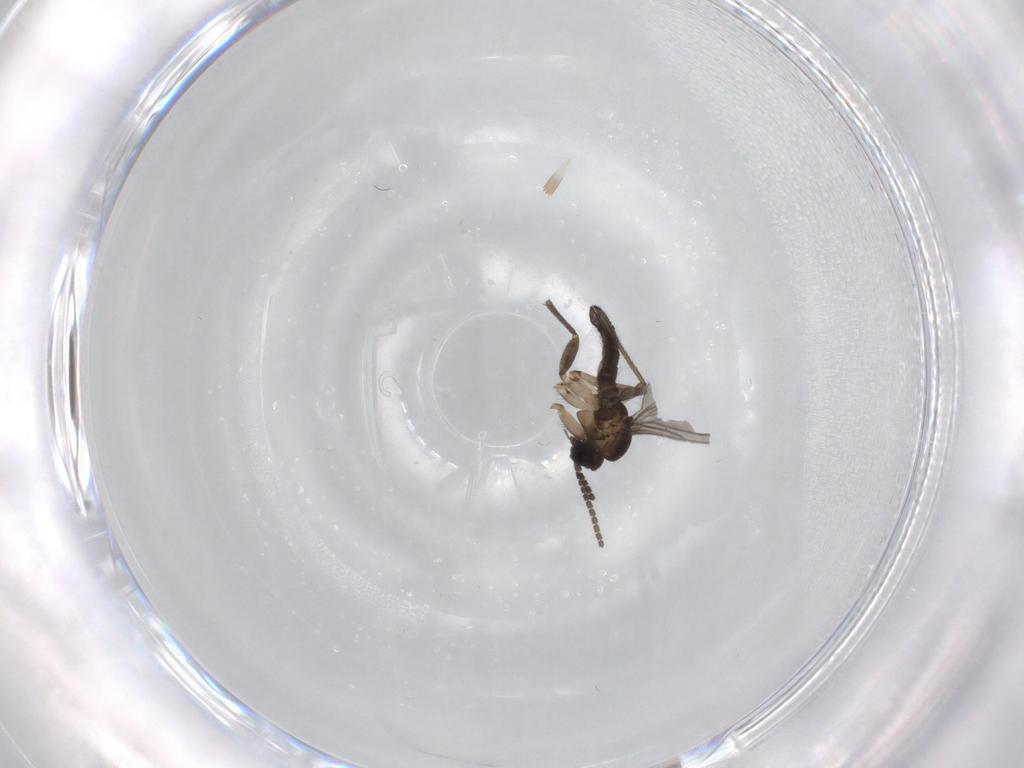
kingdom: Animalia
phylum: Arthropoda
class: Insecta
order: Diptera
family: Sciaridae
